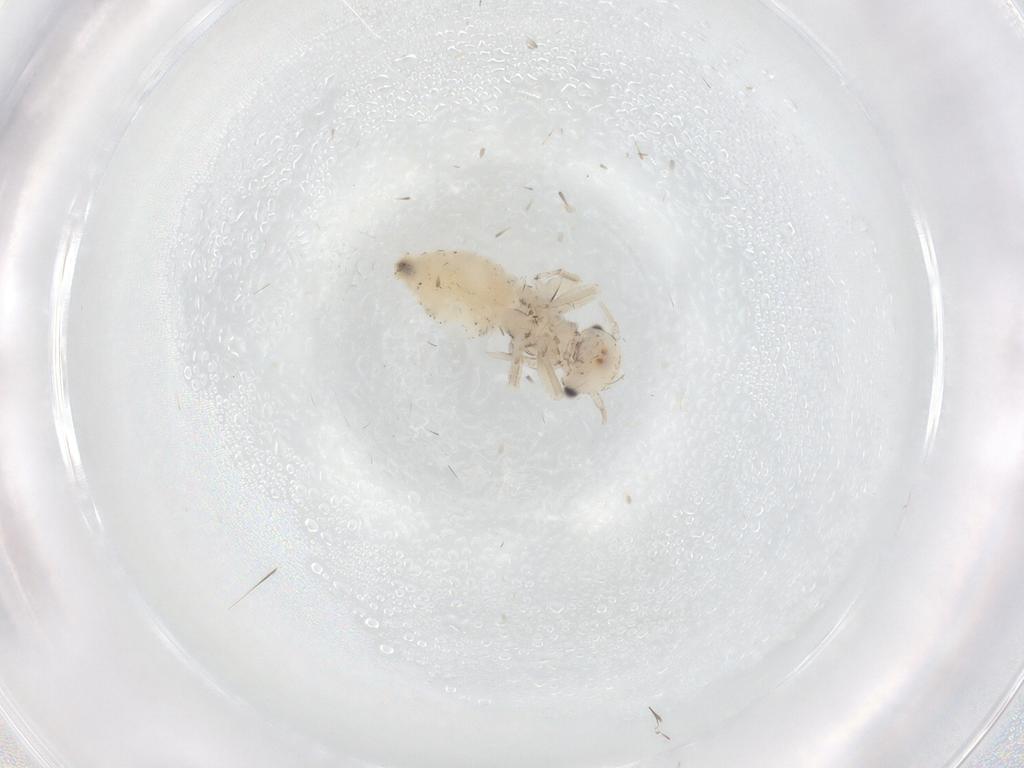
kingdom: Animalia
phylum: Arthropoda
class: Insecta
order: Psocodea
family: Myopsocidae
